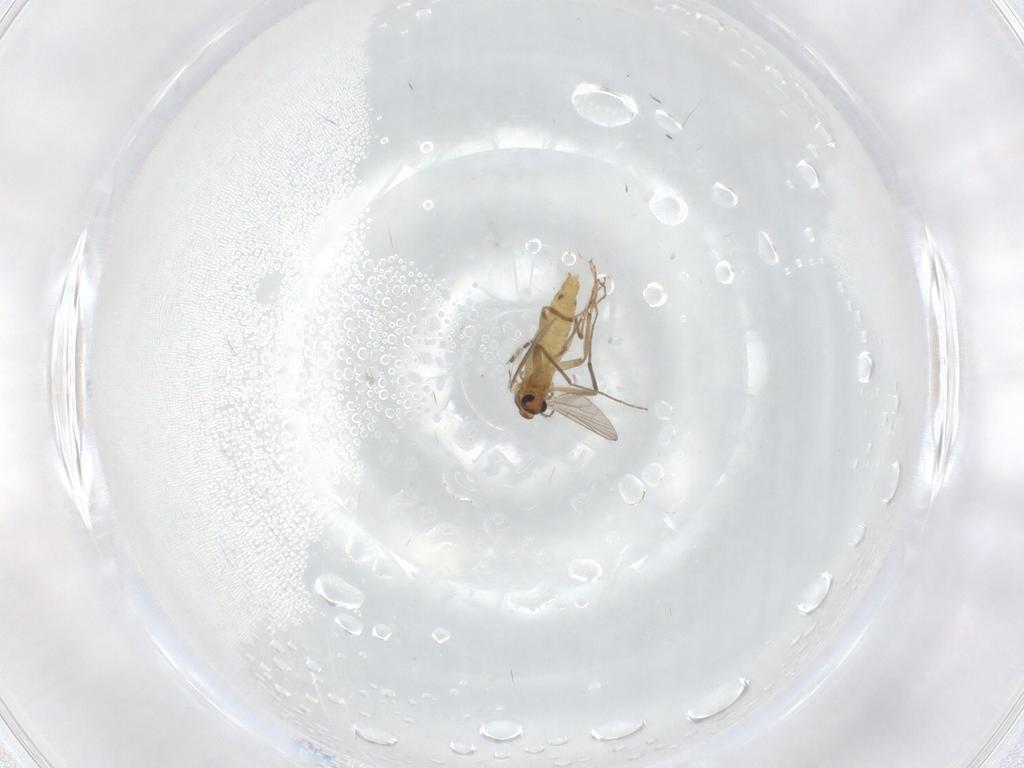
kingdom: Animalia
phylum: Arthropoda
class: Insecta
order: Diptera
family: Chironomidae
